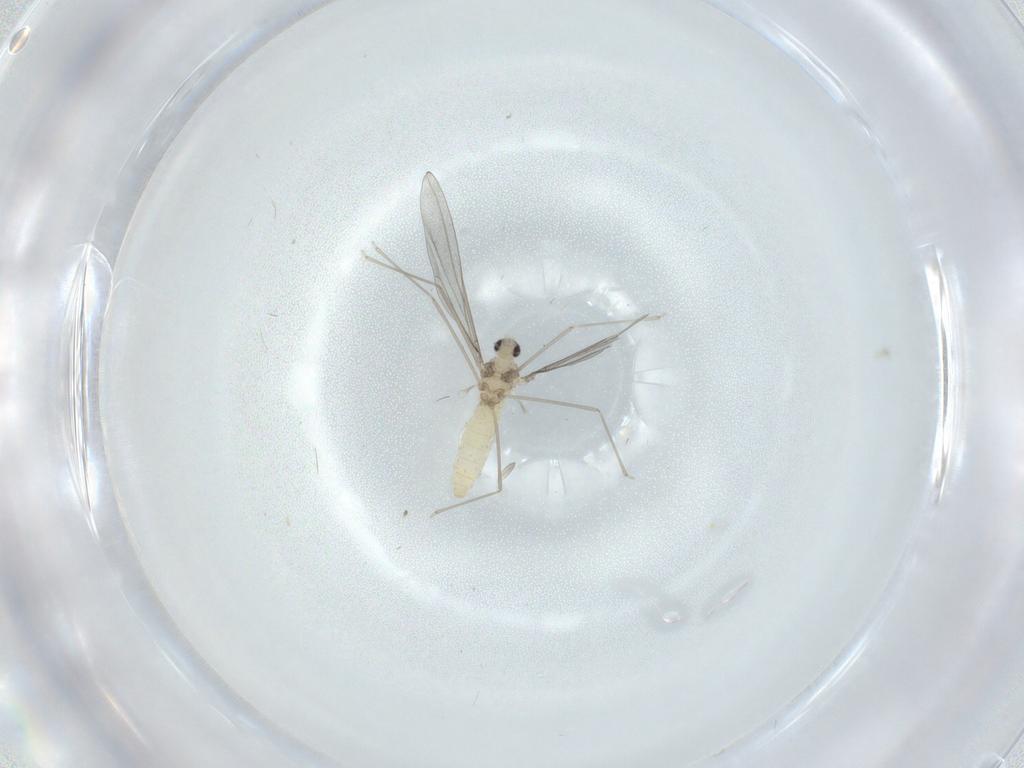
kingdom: Animalia
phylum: Arthropoda
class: Insecta
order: Diptera
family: Cecidomyiidae
